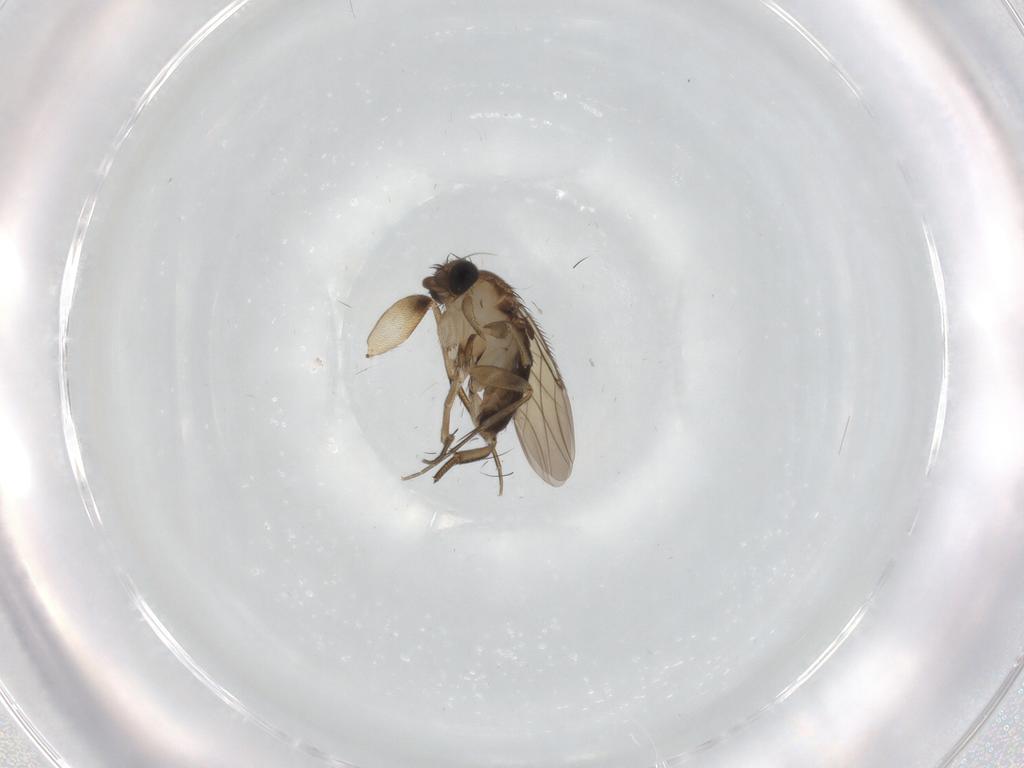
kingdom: Animalia
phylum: Arthropoda
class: Insecta
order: Diptera
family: Phoridae
